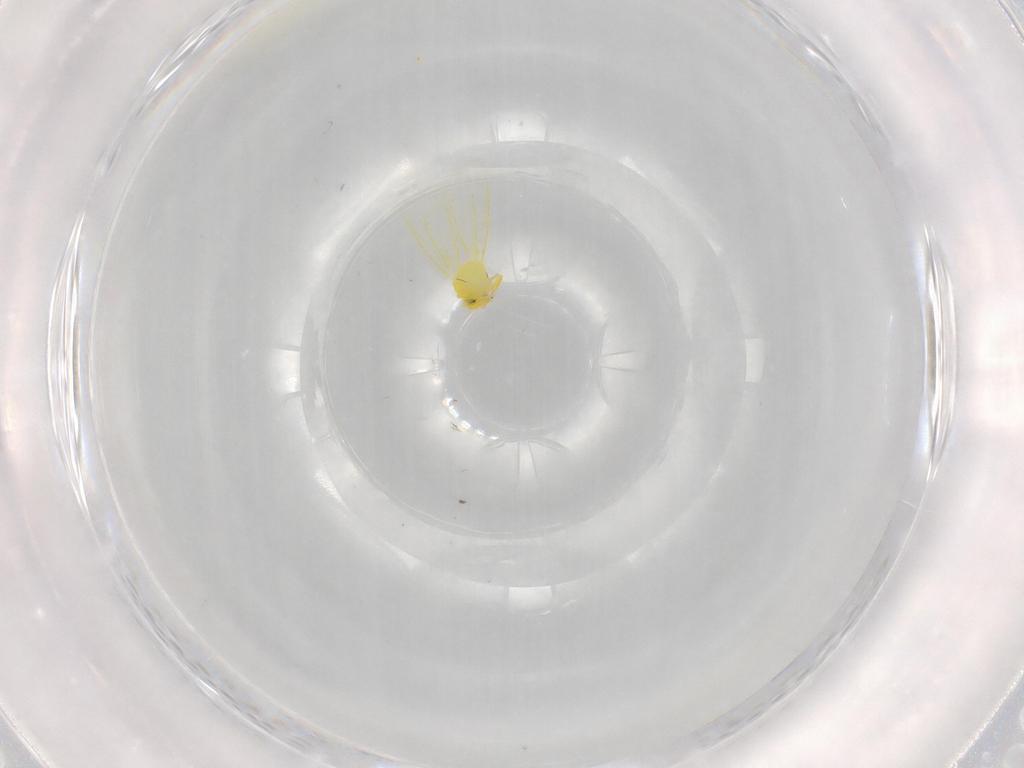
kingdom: Animalia
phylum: Arthropoda
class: Insecta
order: Hemiptera
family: Aleyrodidae
